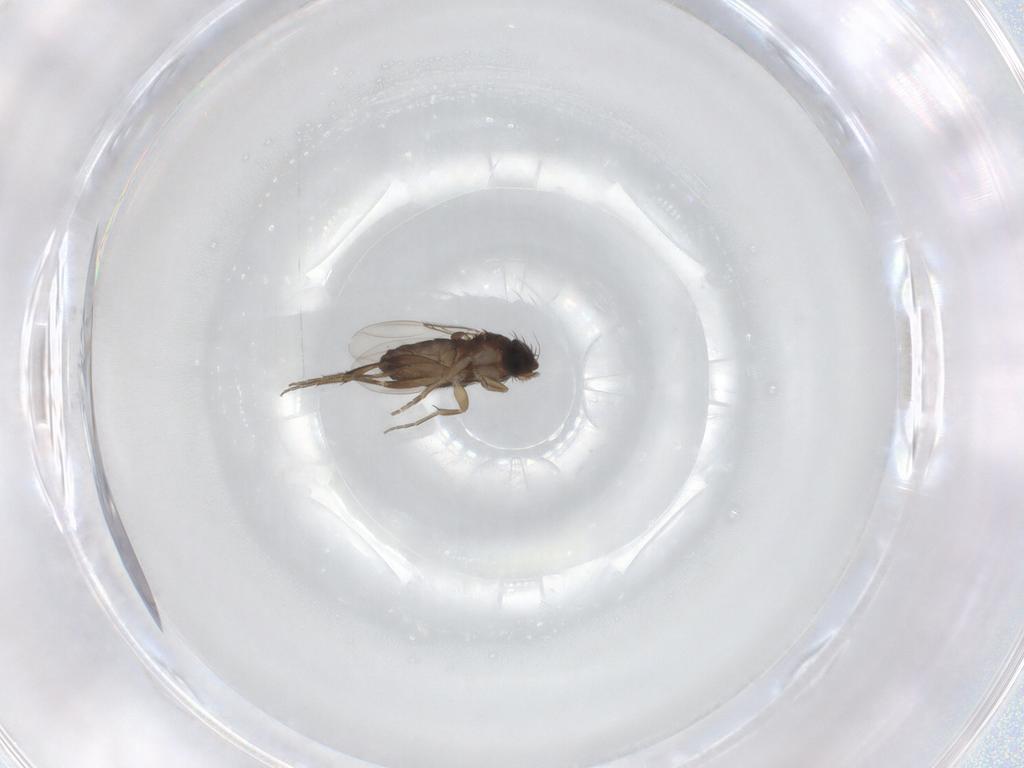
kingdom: Animalia
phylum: Arthropoda
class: Insecta
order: Diptera
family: Phoridae
